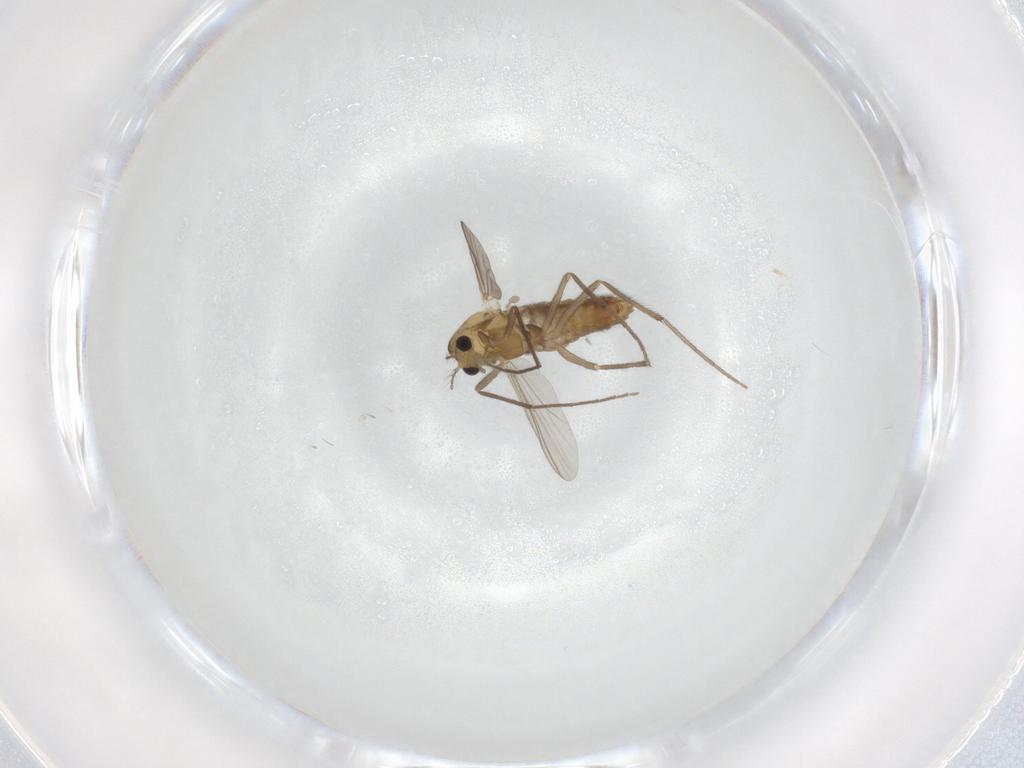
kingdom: Animalia
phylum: Arthropoda
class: Insecta
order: Diptera
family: Chironomidae
